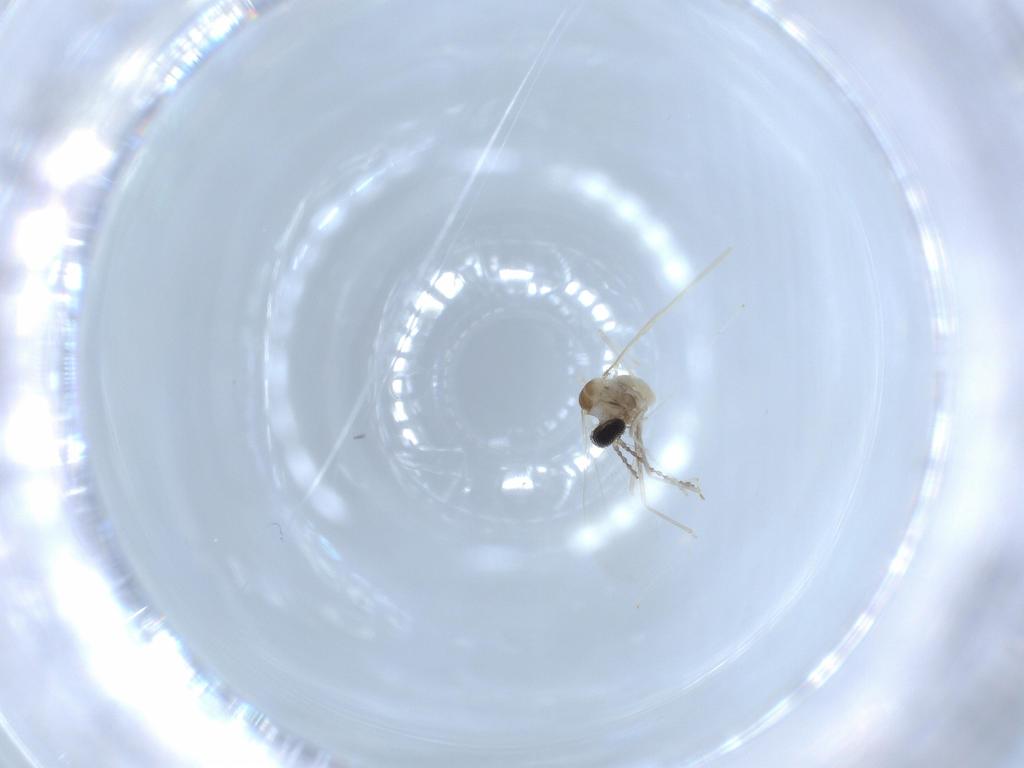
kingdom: Animalia
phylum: Arthropoda
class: Insecta
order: Diptera
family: Cecidomyiidae
